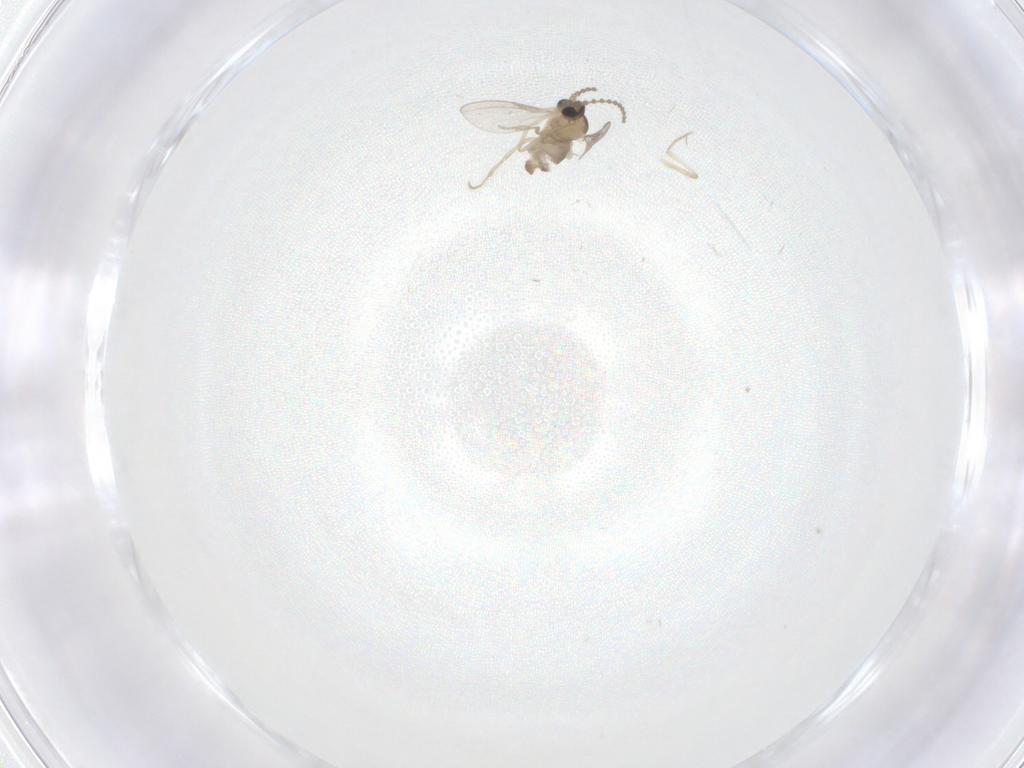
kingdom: Animalia
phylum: Arthropoda
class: Insecta
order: Diptera
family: Cecidomyiidae
